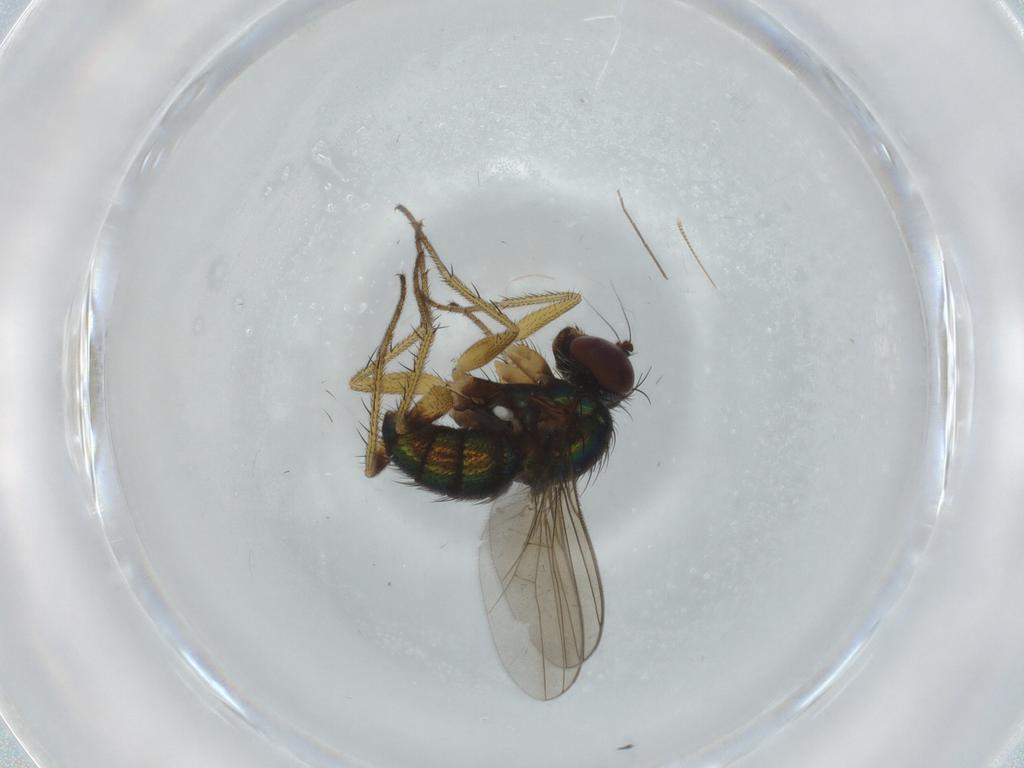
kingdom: Animalia
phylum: Arthropoda
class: Insecta
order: Diptera
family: Dolichopodidae
